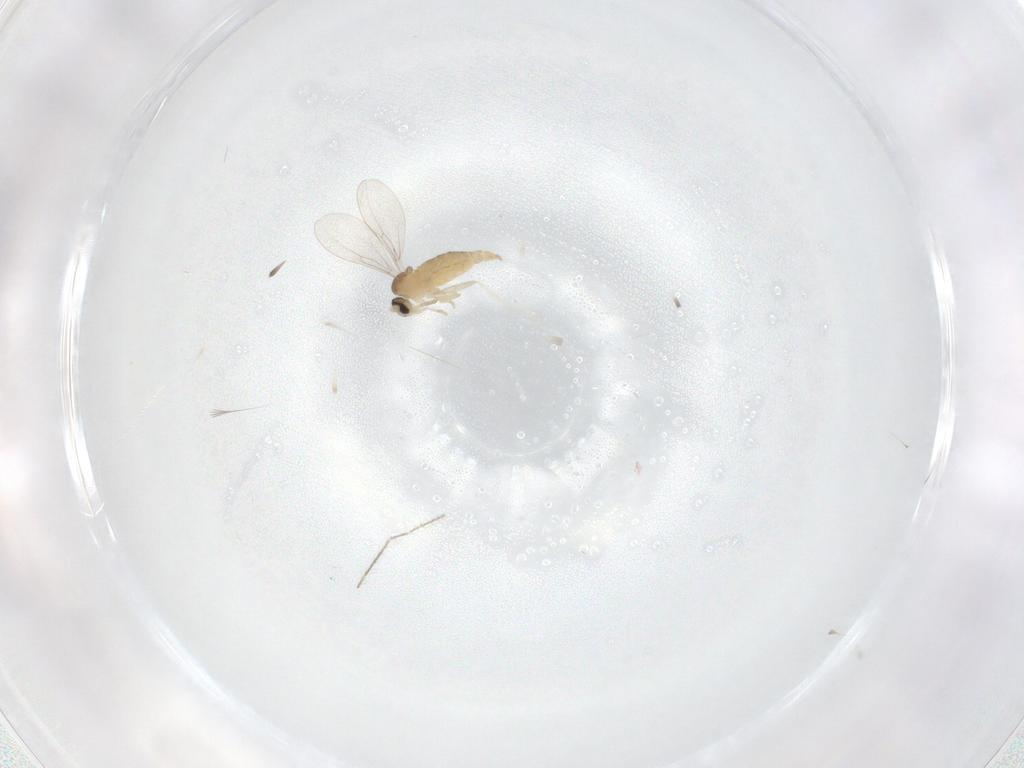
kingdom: Animalia
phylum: Arthropoda
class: Insecta
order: Diptera
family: Cecidomyiidae
